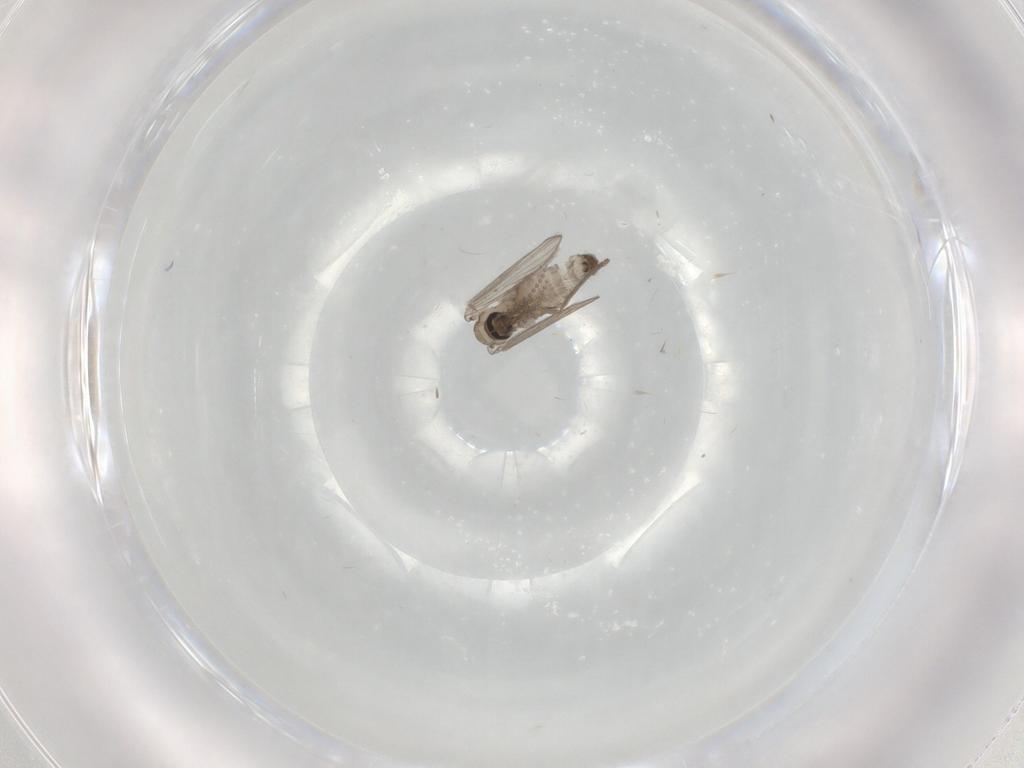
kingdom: Animalia
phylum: Arthropoda
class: Insecta
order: Diptera
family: Psychodidae
